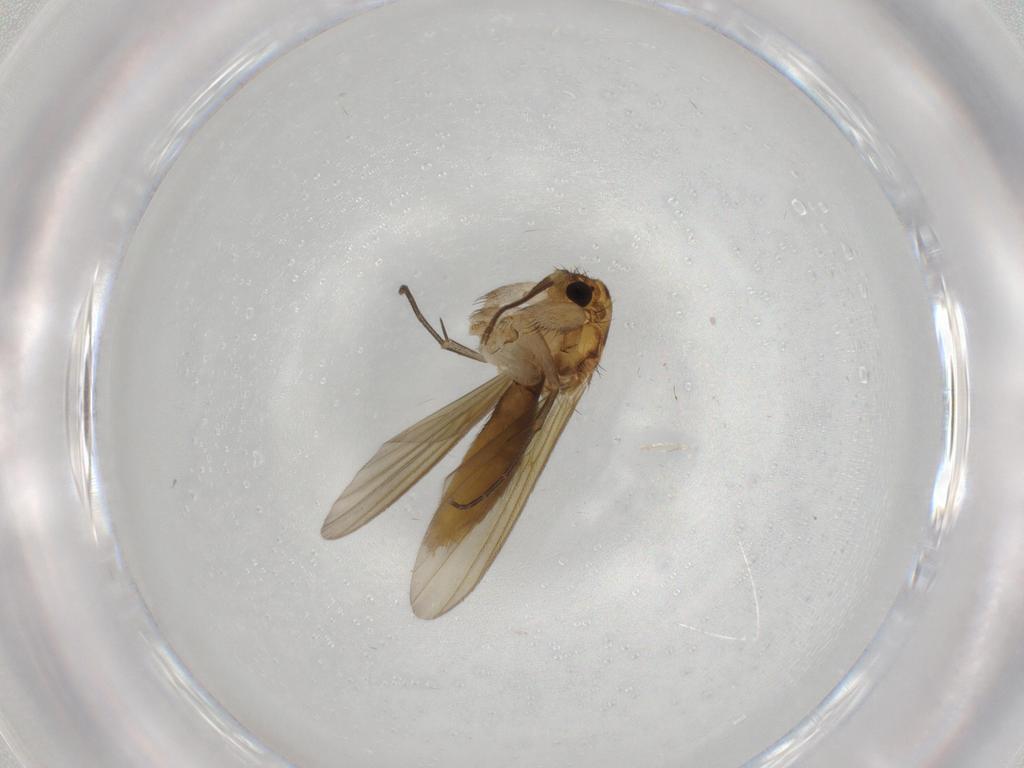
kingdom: Animalia
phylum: Arthropoda
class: Insecta
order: Diptera
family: Mycetophilidae
